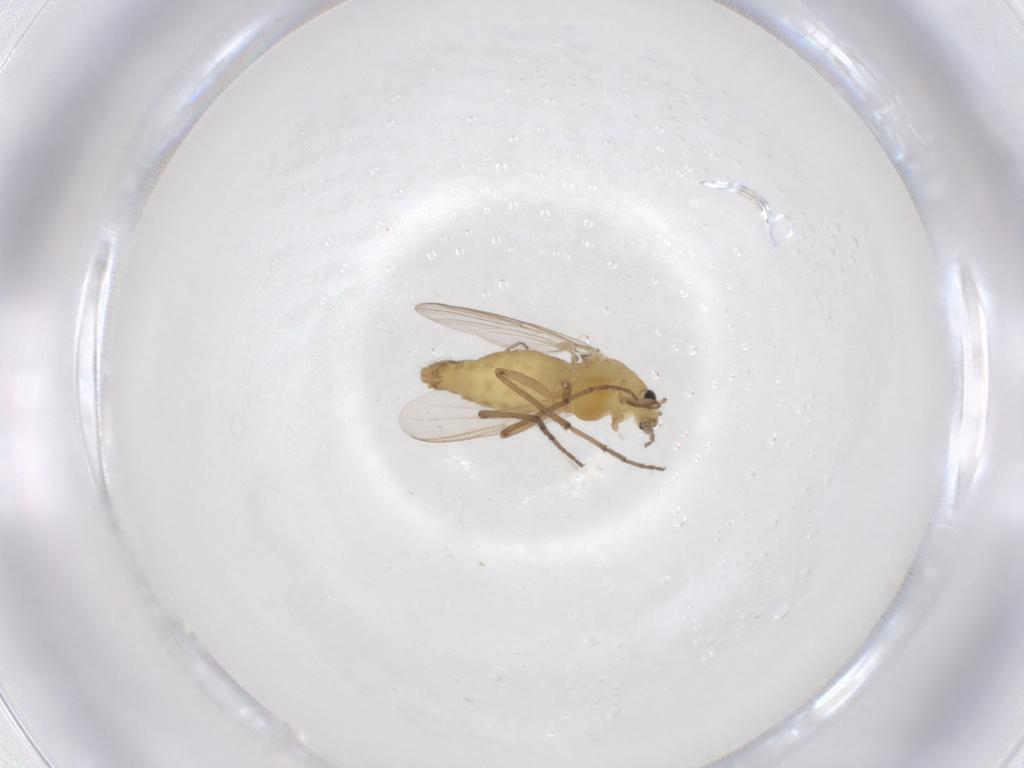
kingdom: Animalia
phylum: Arthropoda
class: Insecta
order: Diptera
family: Chironomidae
